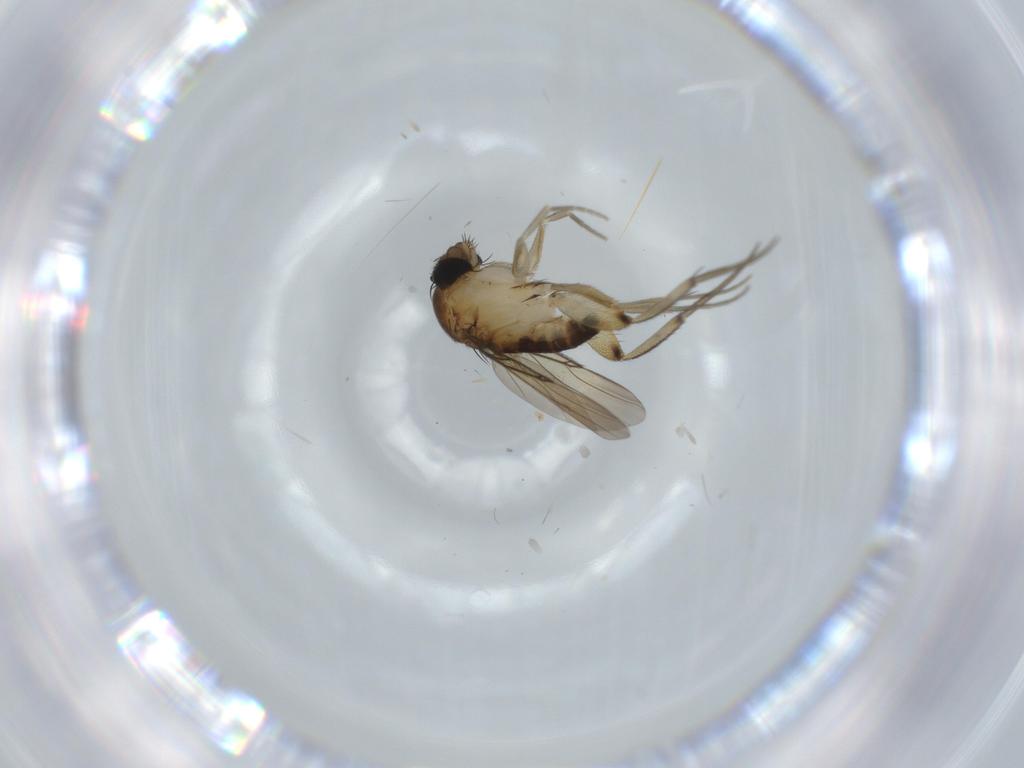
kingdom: Animalia
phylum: Arthropoda
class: Insecta
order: Diptera
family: Phoridae
